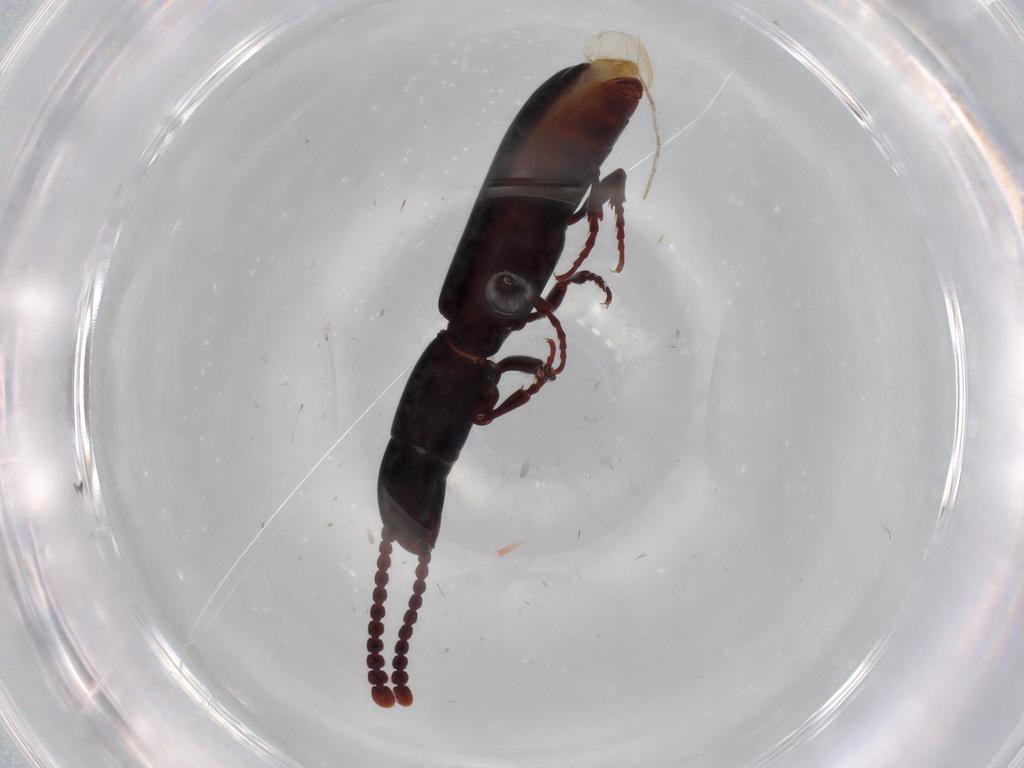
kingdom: Animalia
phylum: Arthropoda
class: Insecta
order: Coleoptera
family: Passandridae
